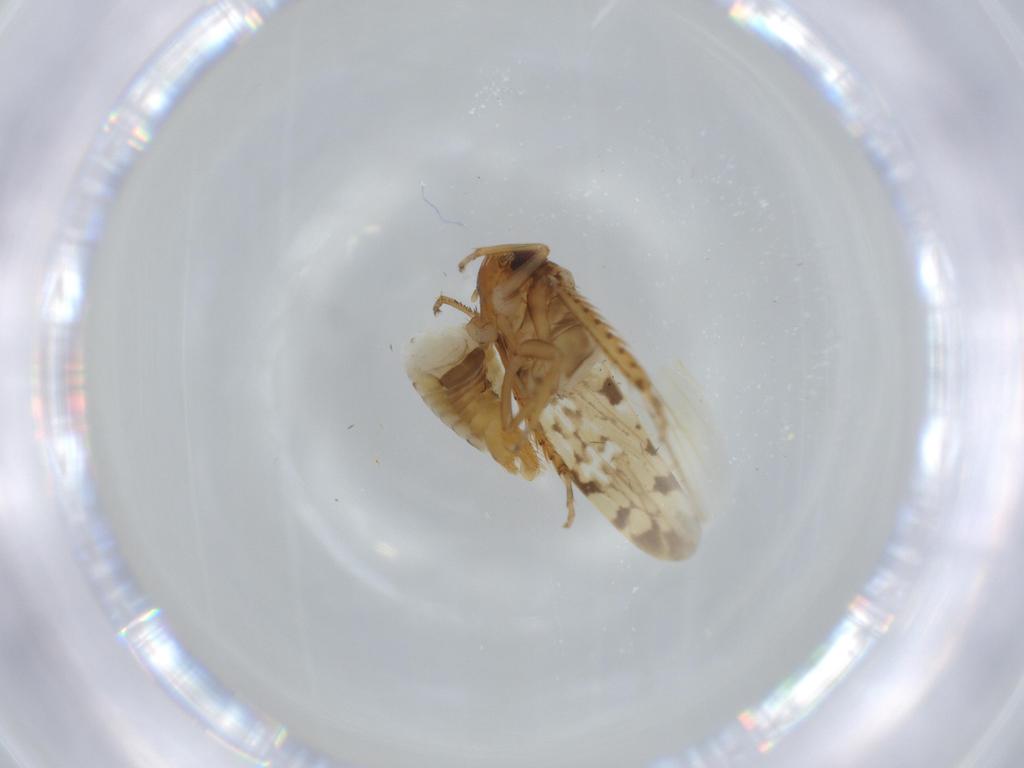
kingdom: Animalia
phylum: Arthropoda
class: Insecta
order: Hemiptera
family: Cicadellidae
